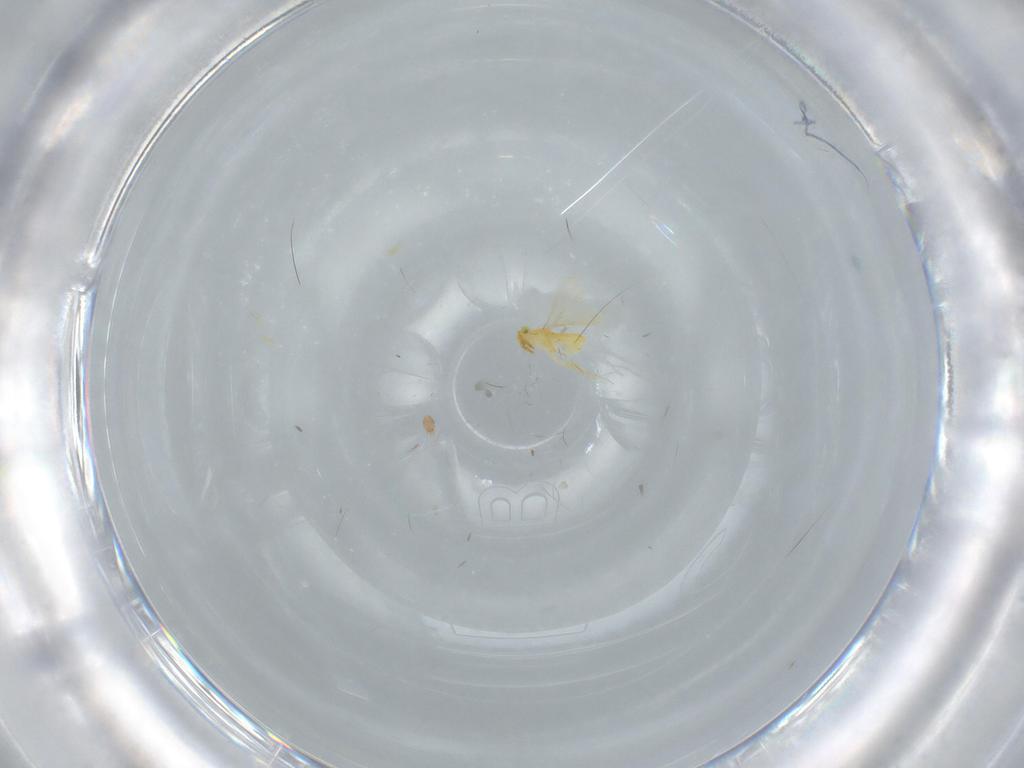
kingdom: Animalia
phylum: Arthropoda
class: Insecta
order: Hymenoptera
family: Aphelinidae
